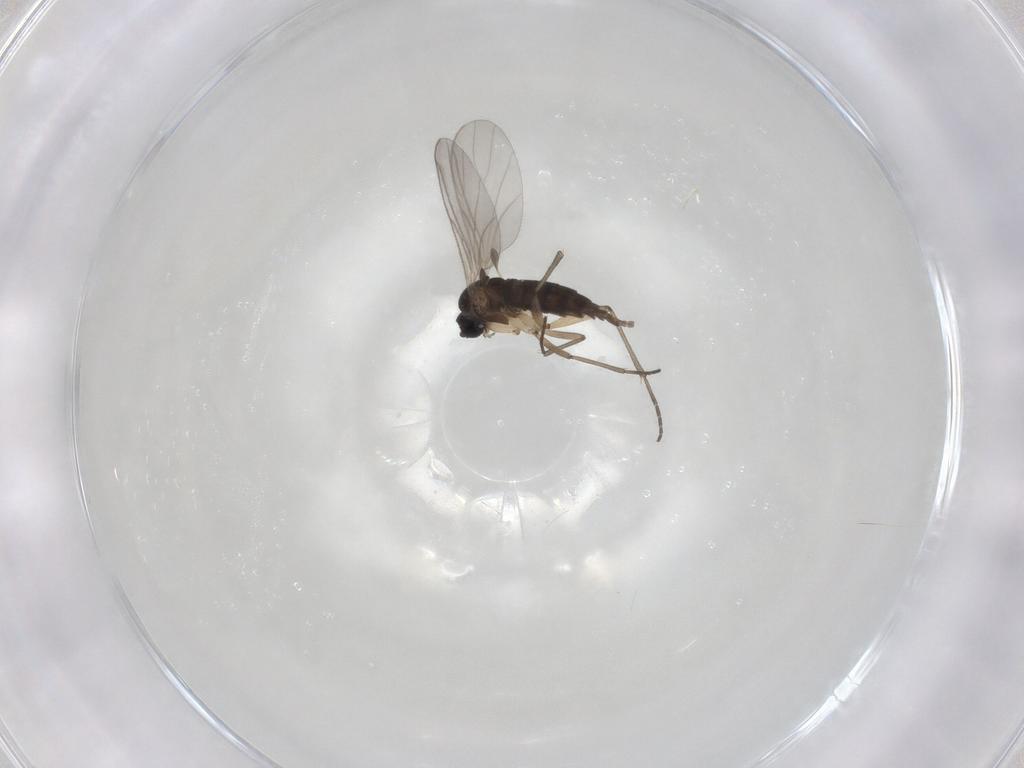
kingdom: Animalia
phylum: Arthropoda
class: Insecta
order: Diptera
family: Sciaridae
